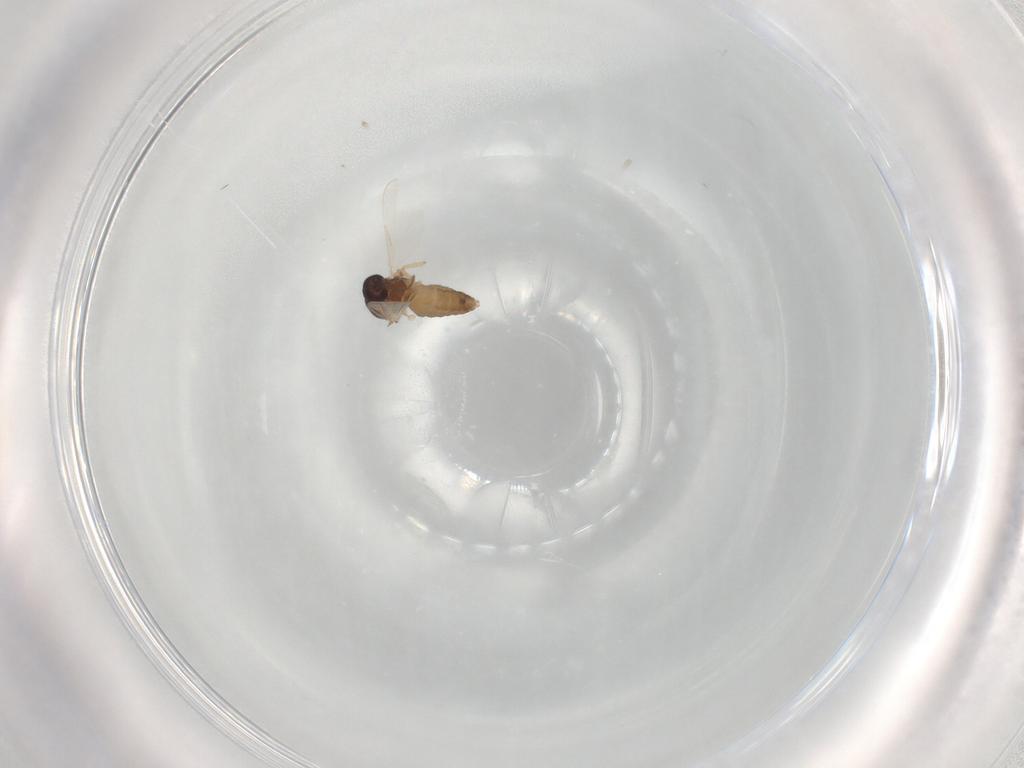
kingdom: Animalia
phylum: Arthropoda
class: Insecta
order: Diptera
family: Ceratopogonidae
